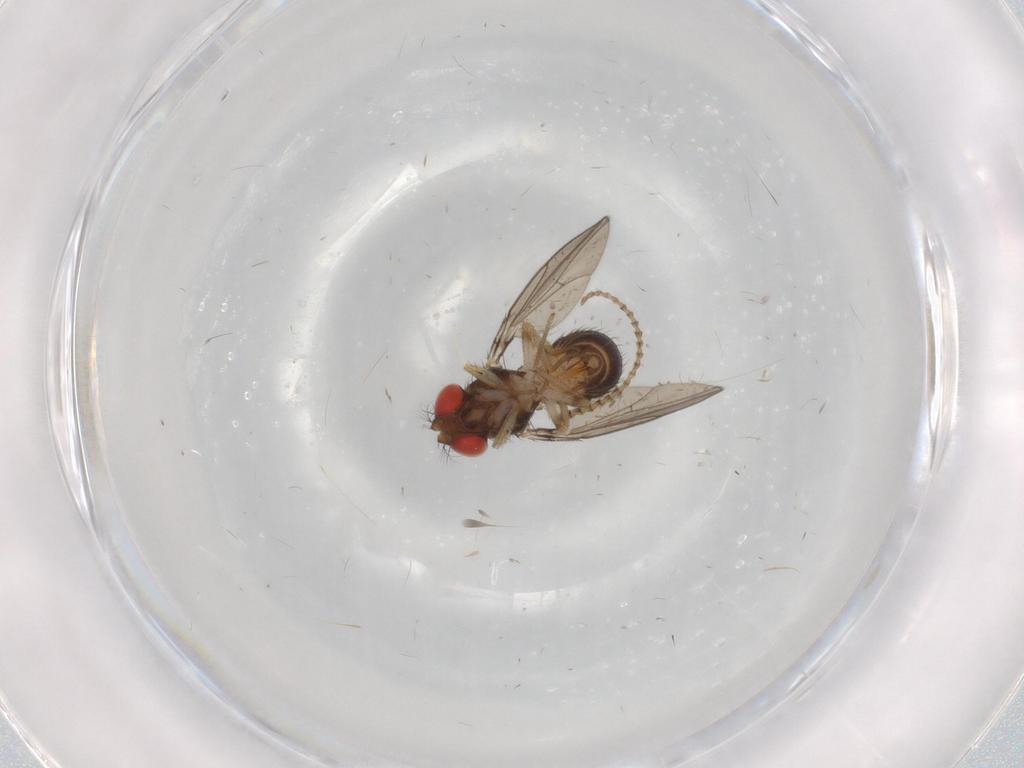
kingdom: Animalia
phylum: Arthropoda
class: Insecta
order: Diptera
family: Drosophilidae
